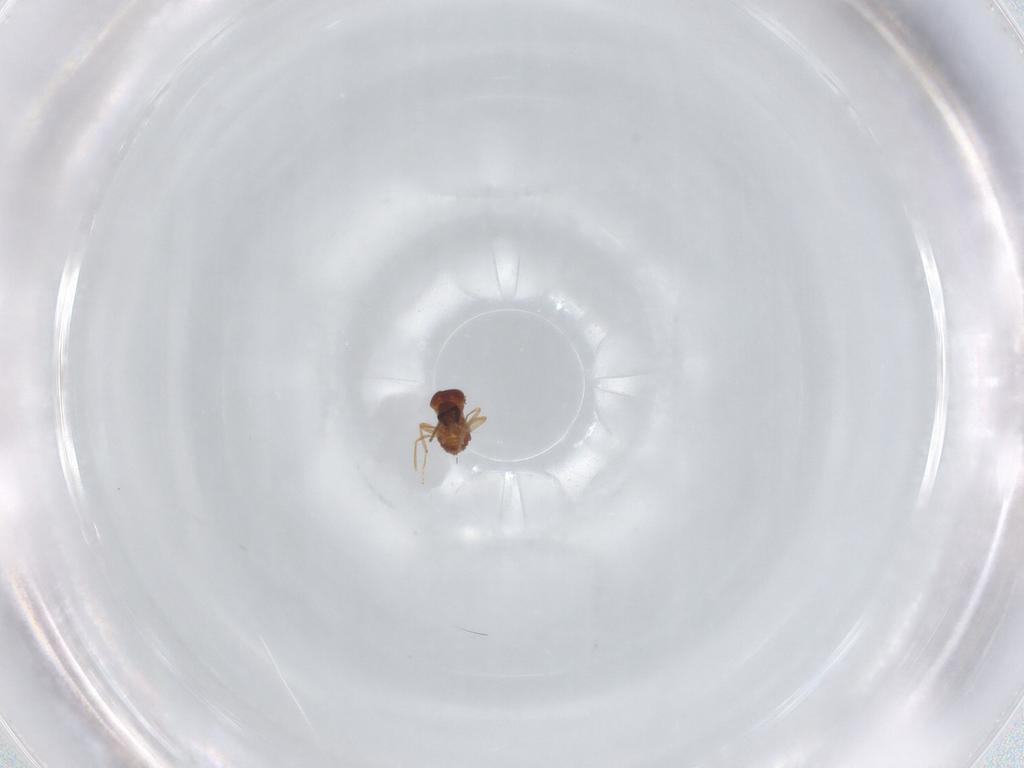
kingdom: Animalia
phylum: Arthropoda
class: Insecta
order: Diptera
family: Ceratopogonidae
